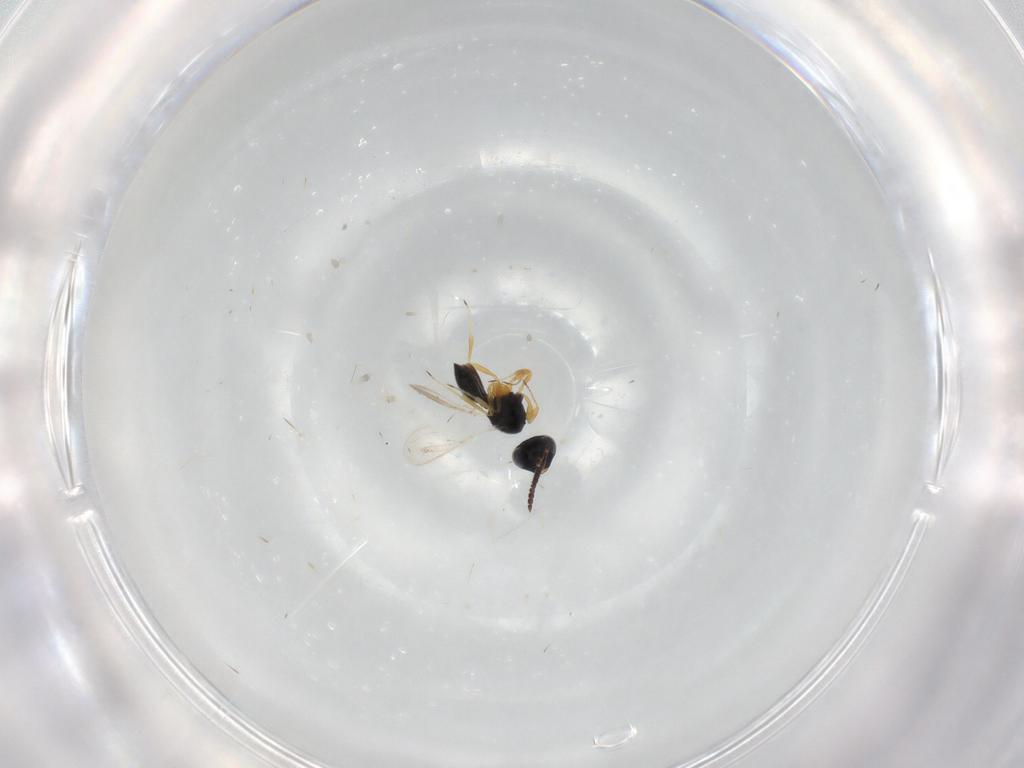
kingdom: Animalia
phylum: Arthropoda
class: Insecta
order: Hymenoptera
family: Scelionidae
